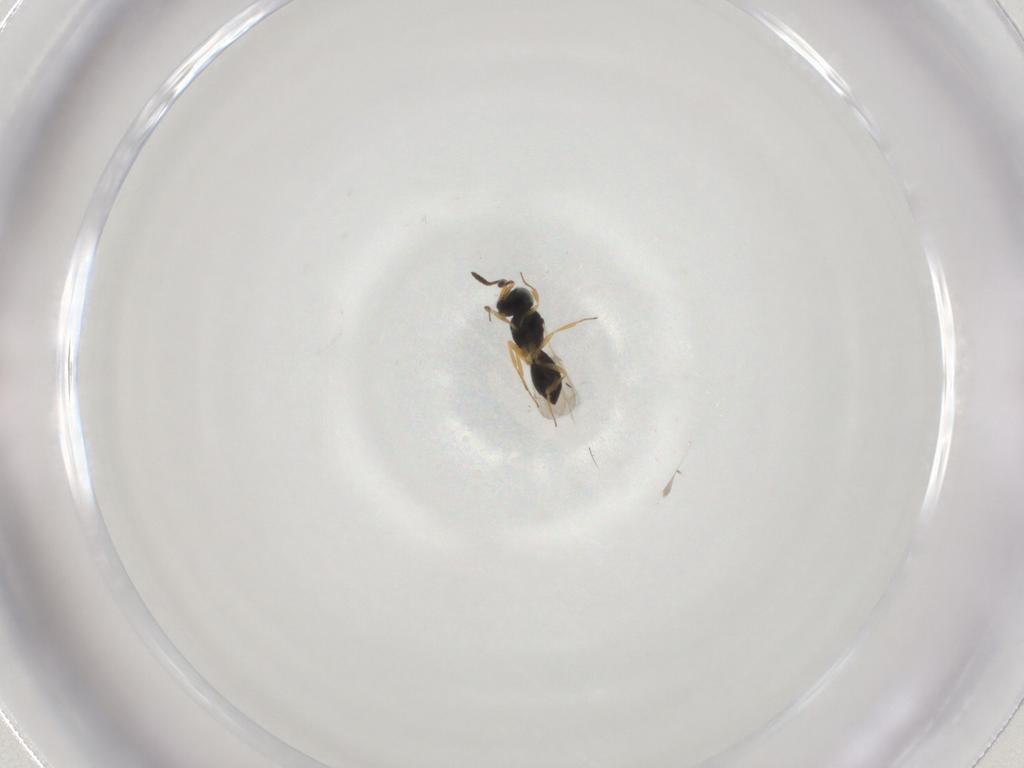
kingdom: Animalia
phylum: Arthropoda
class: Insecta
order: Hymenoptera
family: Scelionidae
